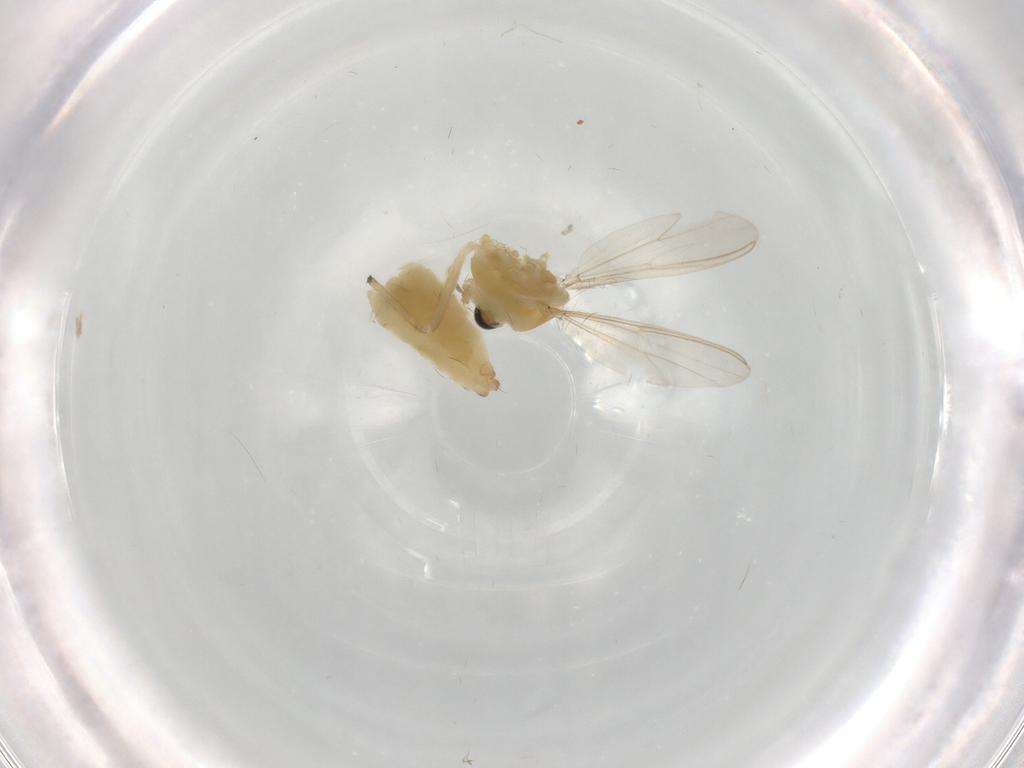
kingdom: Animalia
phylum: Arthropoda
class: Insecta
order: Diptera
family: Chironomidae
